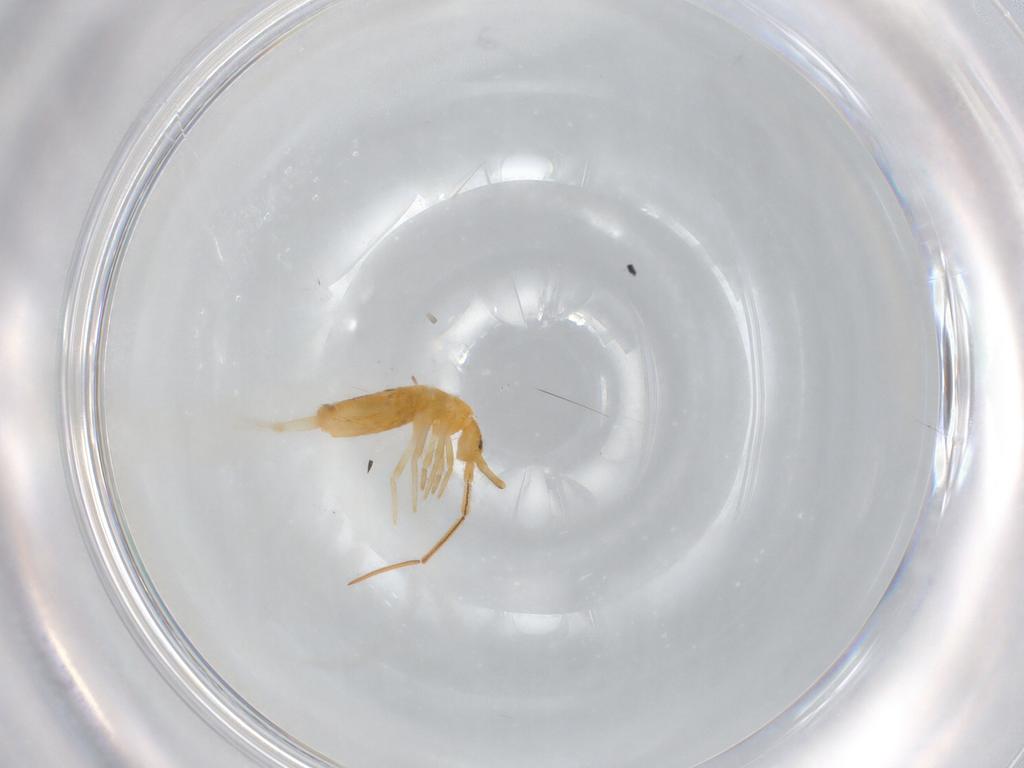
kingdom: Animalia
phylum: Arthropoda
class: Collembola
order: Entomobryomorpha
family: Entomobryidae
